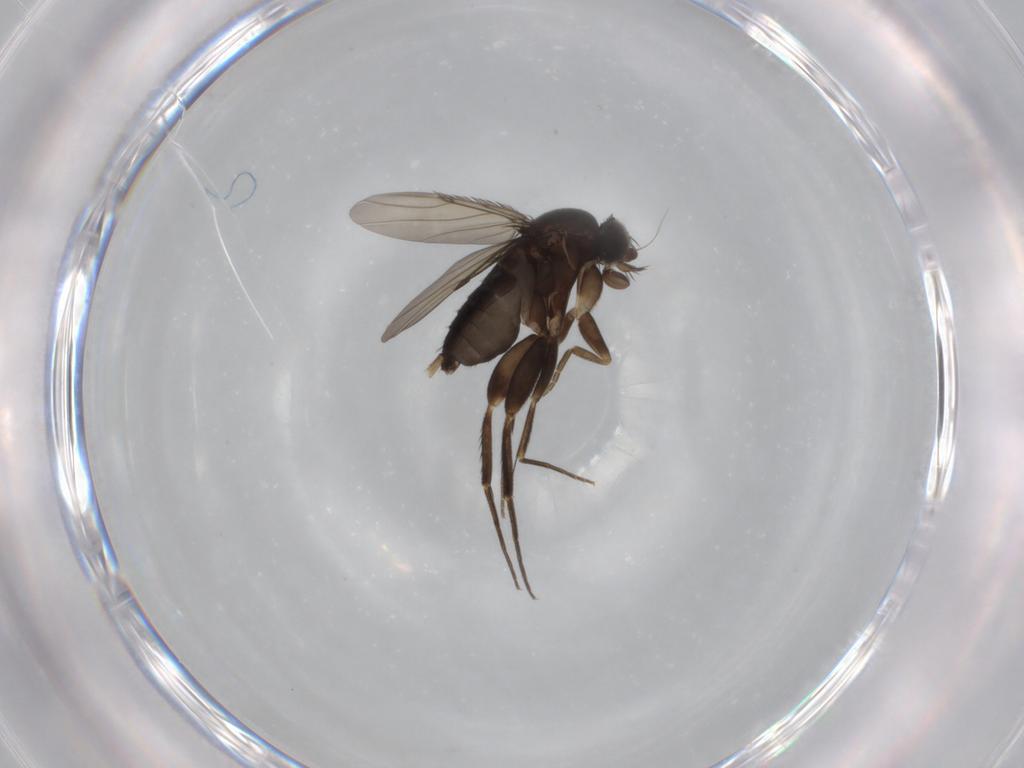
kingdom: Animalia
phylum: Arthropoda
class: Insecta
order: Diptera
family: Phoridae
